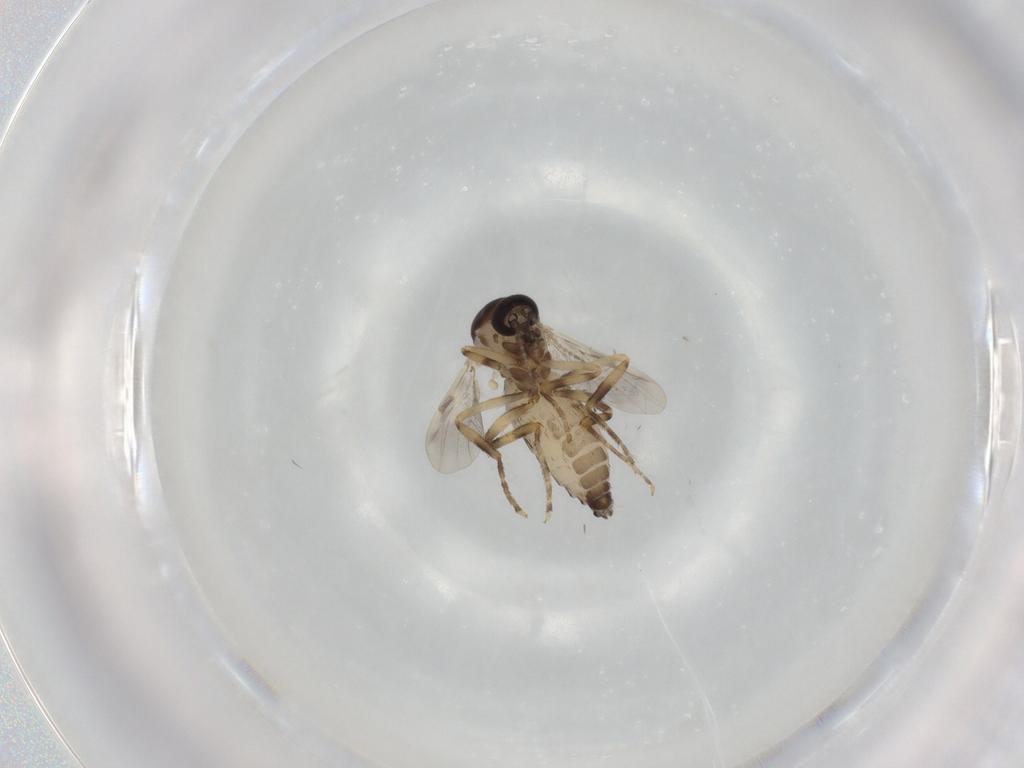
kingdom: Animalia
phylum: Arthropoda
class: Insecta
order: Diptera
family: Ceratopogonidae
